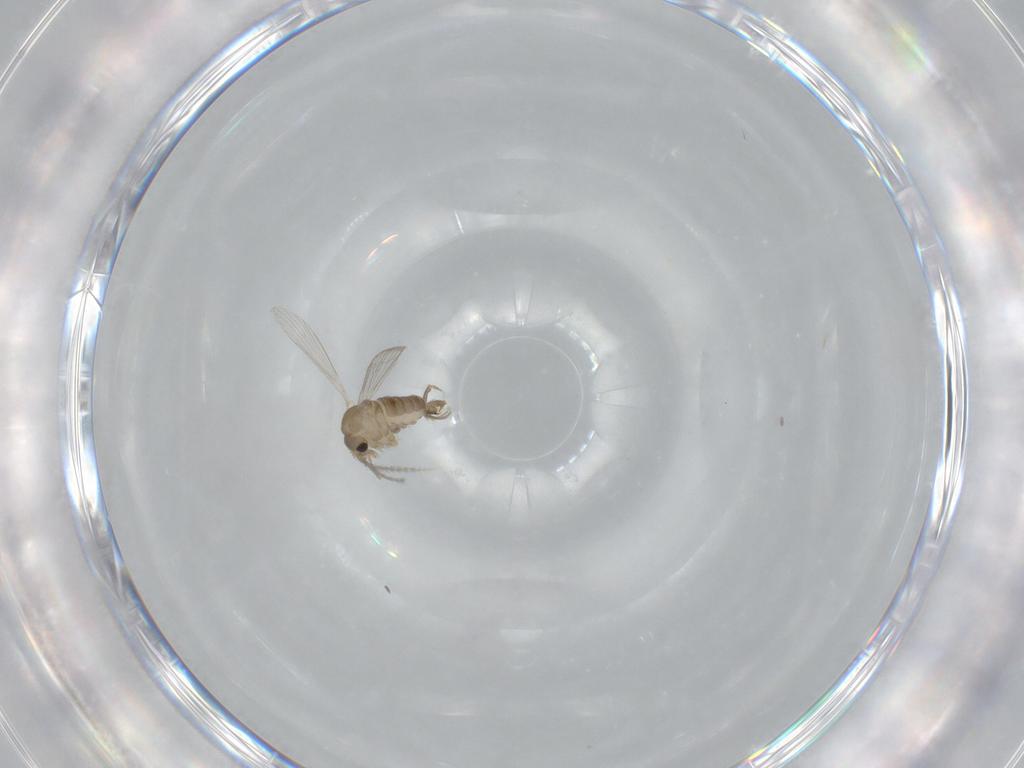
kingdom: Animalia
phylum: Arthropoda
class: Insecta
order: Diptera
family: Psychodidae
